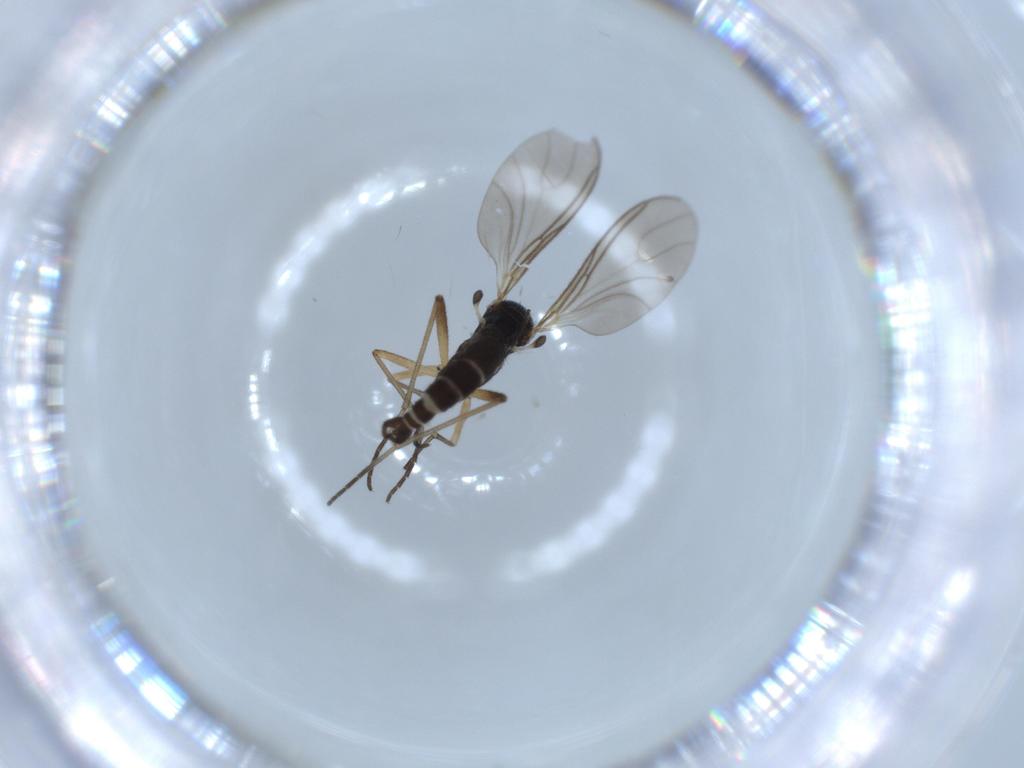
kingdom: Animalia
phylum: Arthropoda
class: Insecta
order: Diptera
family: Sciaridae
